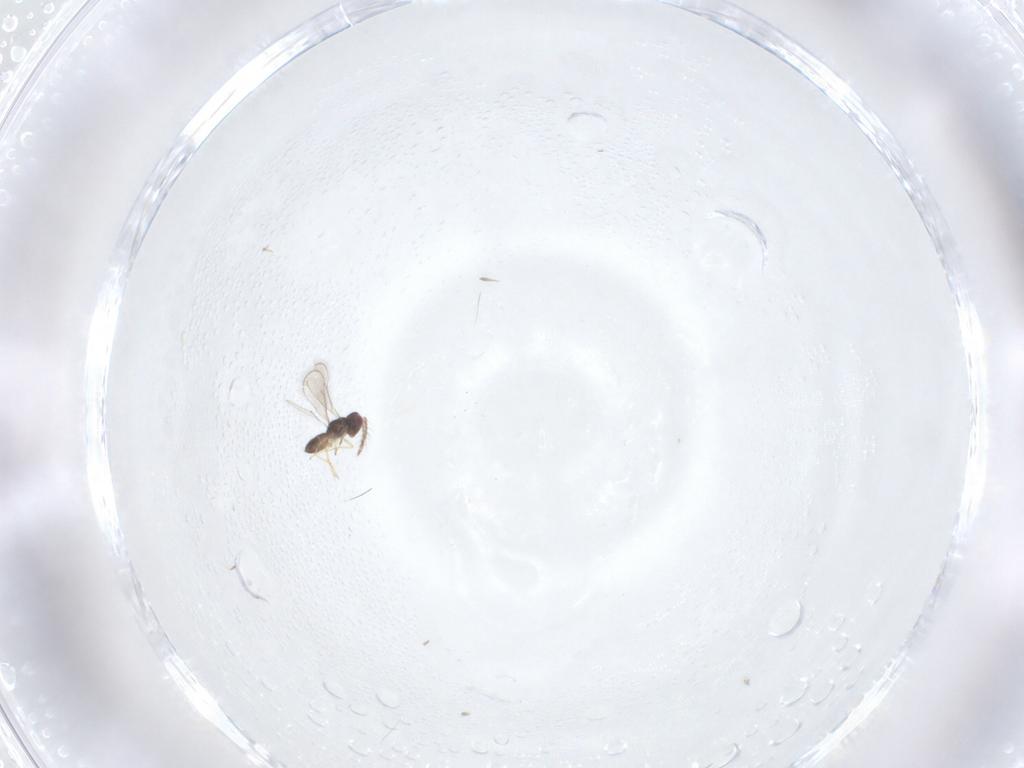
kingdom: Animalia
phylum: Arthropoda
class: Insecta
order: Hymenoptera
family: Eulophidae
